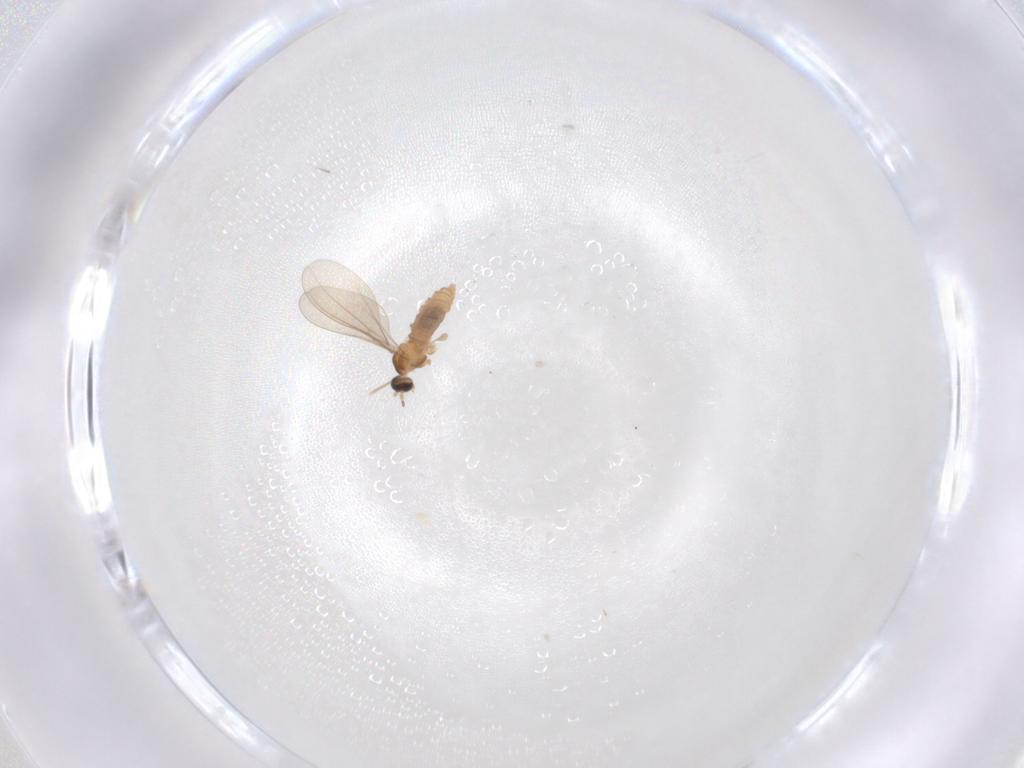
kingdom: Animalia
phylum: Arthropoda
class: Insecta
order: Diptera
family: Cecidomyiidae
